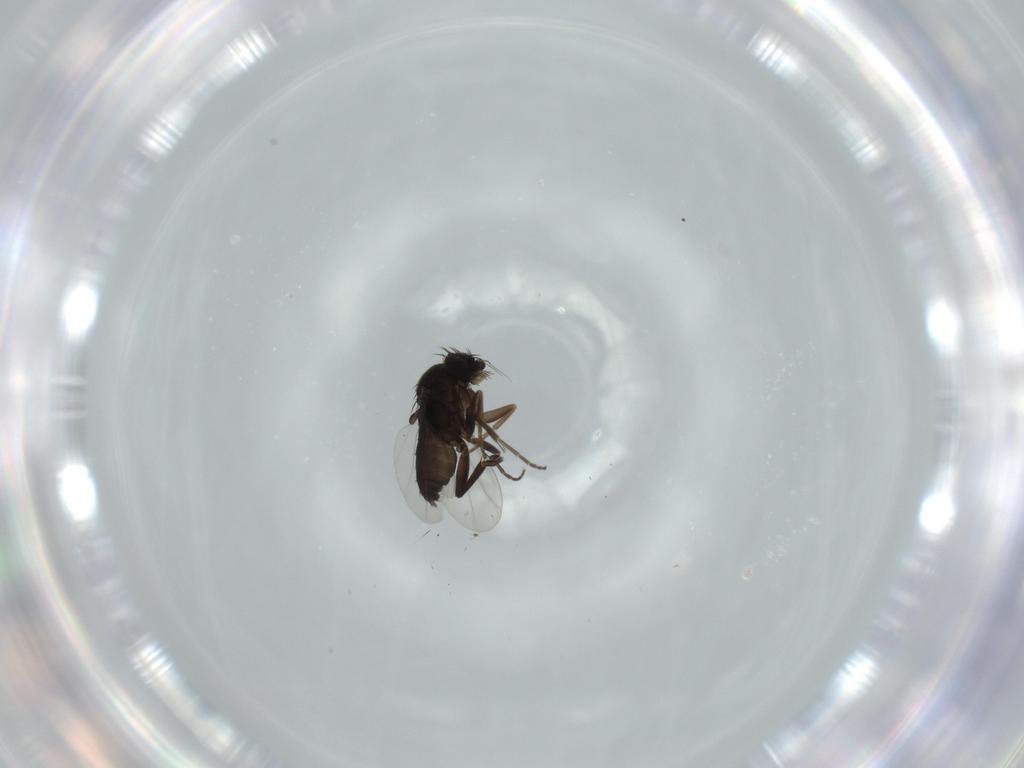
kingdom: Animalia
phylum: Arthropoda
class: Insecta
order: Diptera
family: Phoridae
